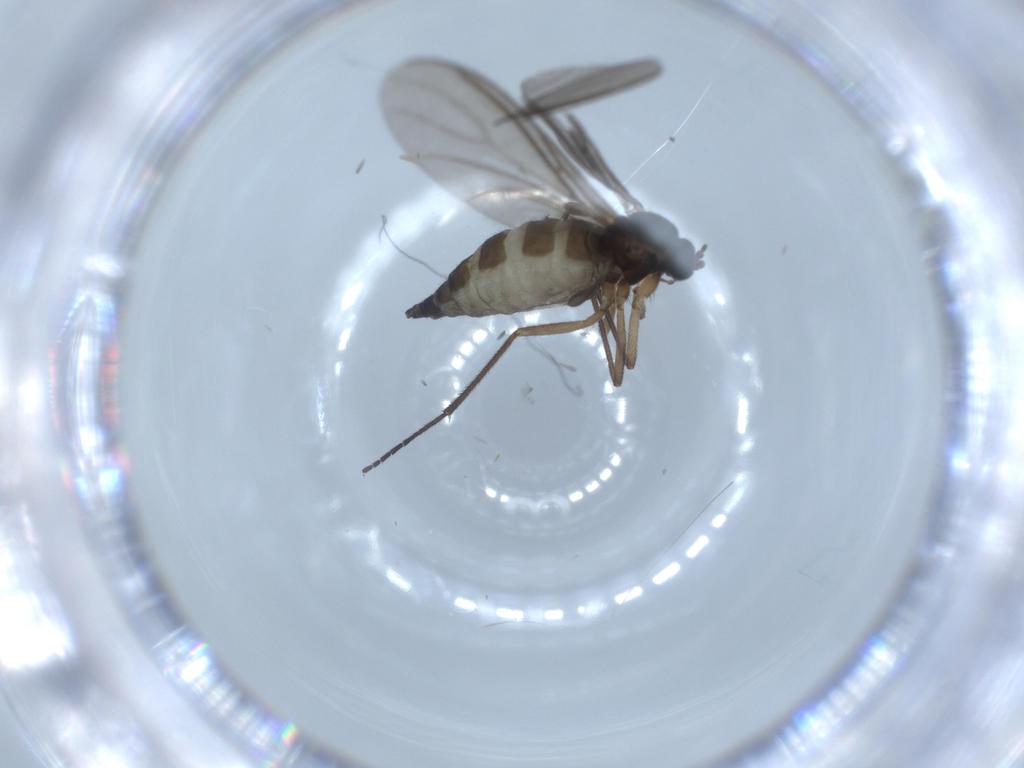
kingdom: Animalia
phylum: Arthropoda
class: Insecta
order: Diptera
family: Sciaridae
